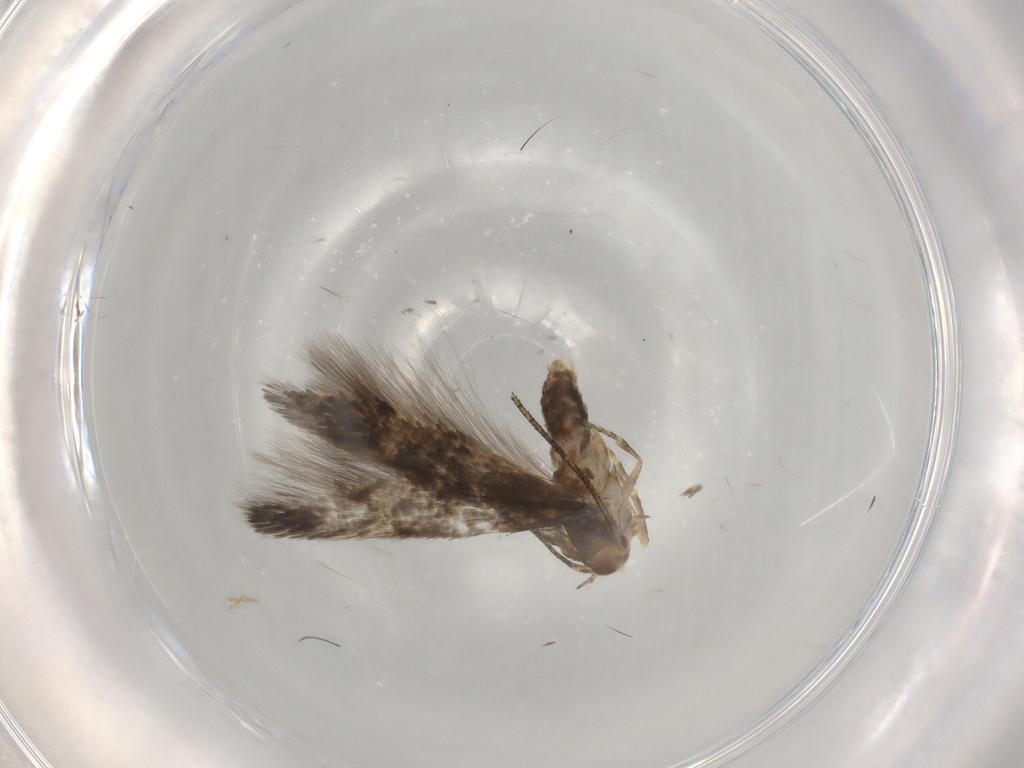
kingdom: Animalia
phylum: Arthropoda
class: Insecta
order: Lepidoptera
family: Momphidae
